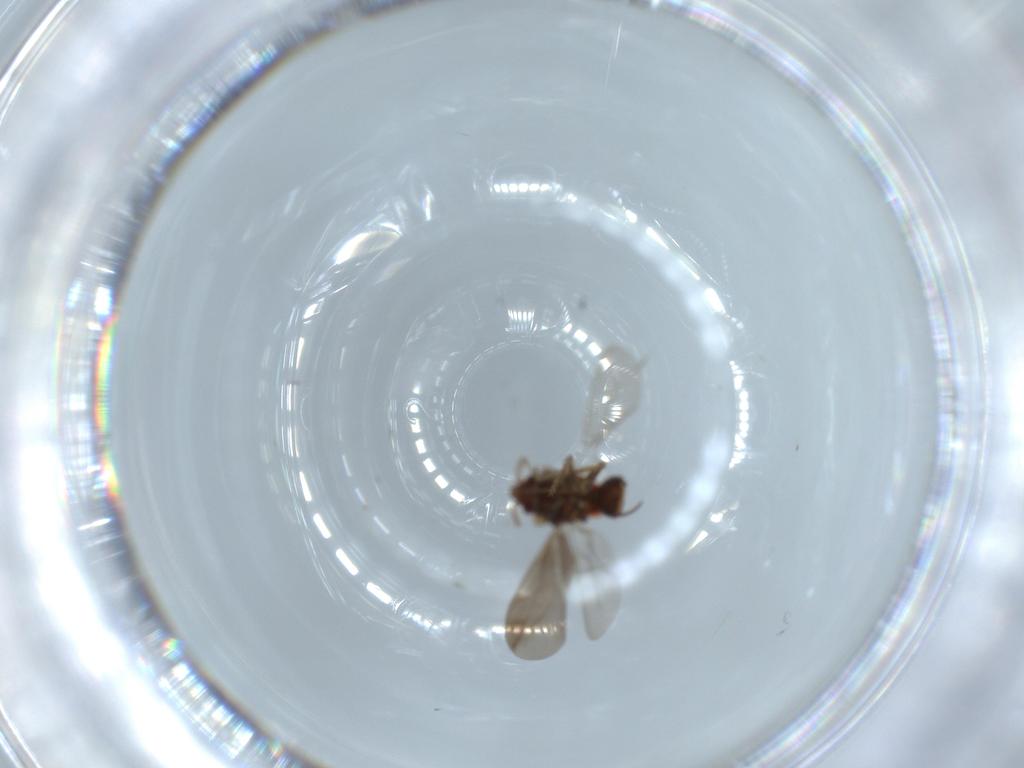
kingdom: Animalia
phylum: Arthropoda
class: Insecta
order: Hemiptera
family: Ceratocombidae
